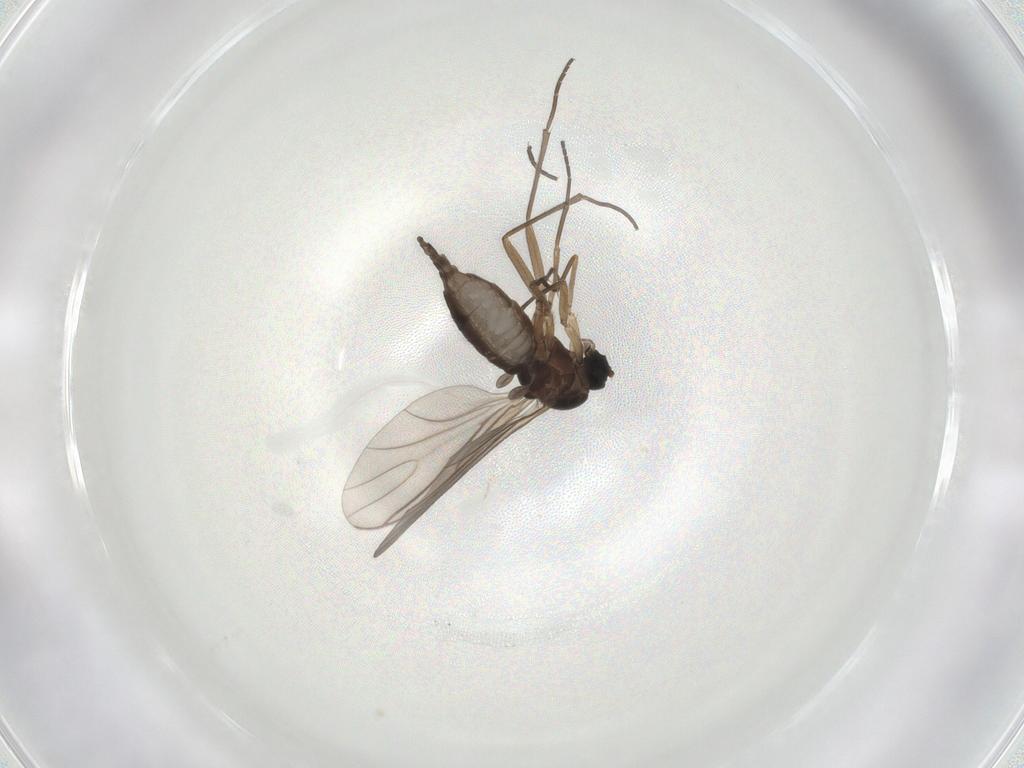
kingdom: Animalia
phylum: Arthropoda
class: Insecta
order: Diptera
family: Sciaridae
